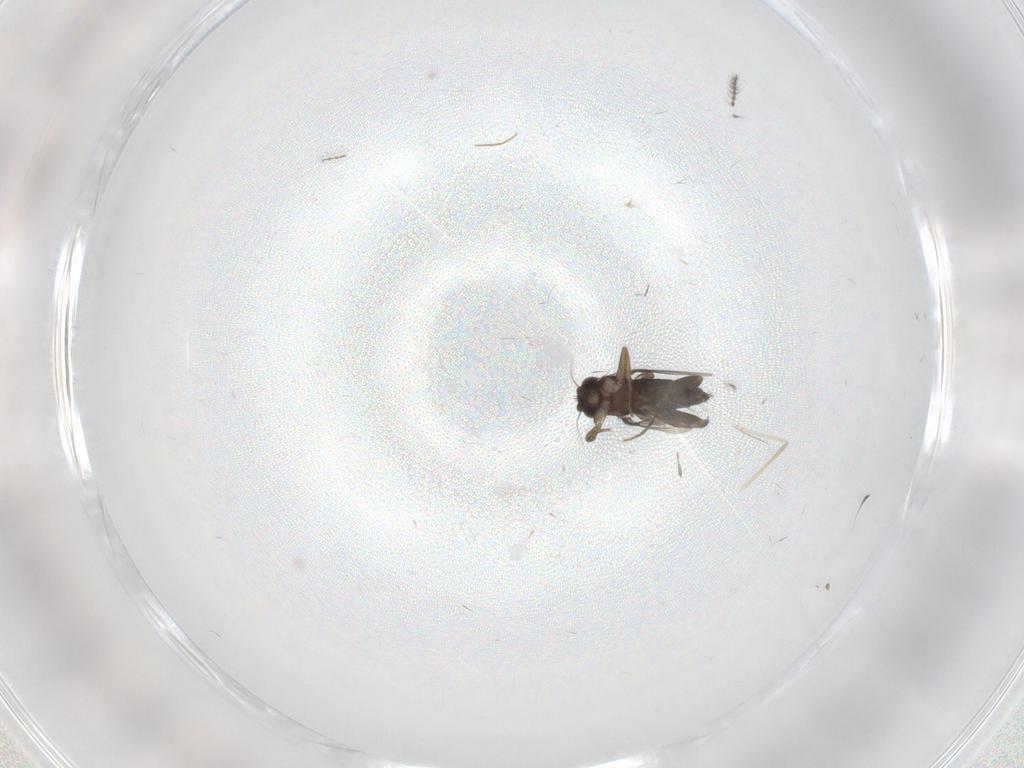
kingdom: Animalia
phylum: Arthropoda
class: Insecta
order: Diptera
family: Phoridae
